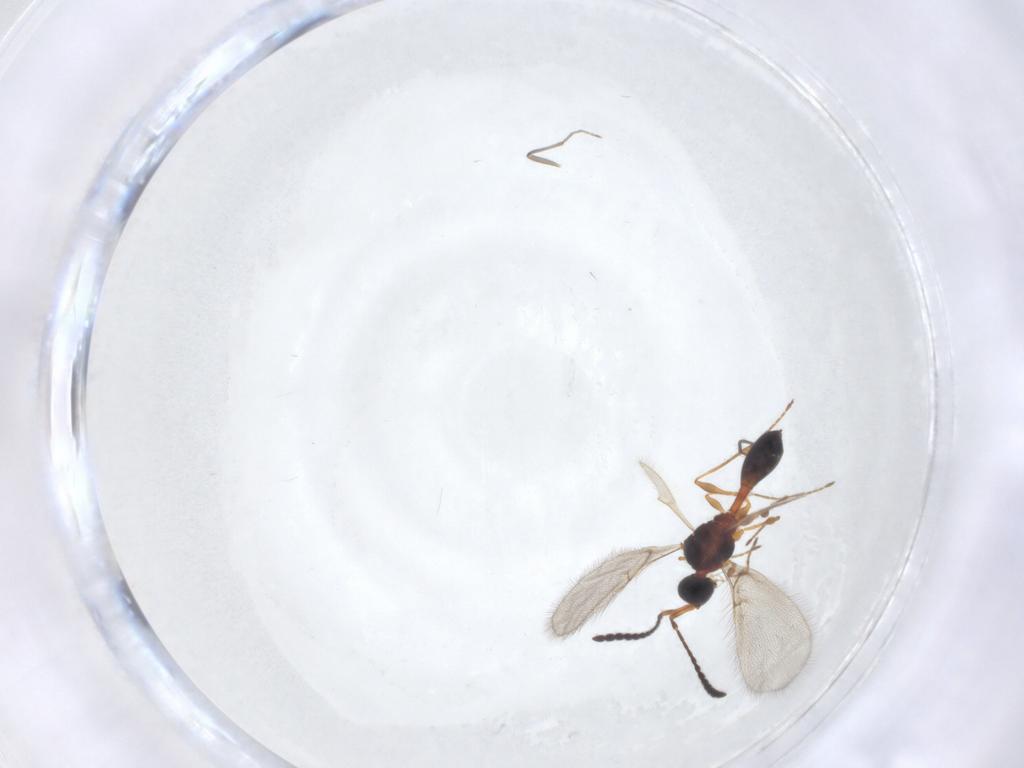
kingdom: Animalia
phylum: Arthropoda
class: Insecta
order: Hymenoptera
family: Diapriidae
